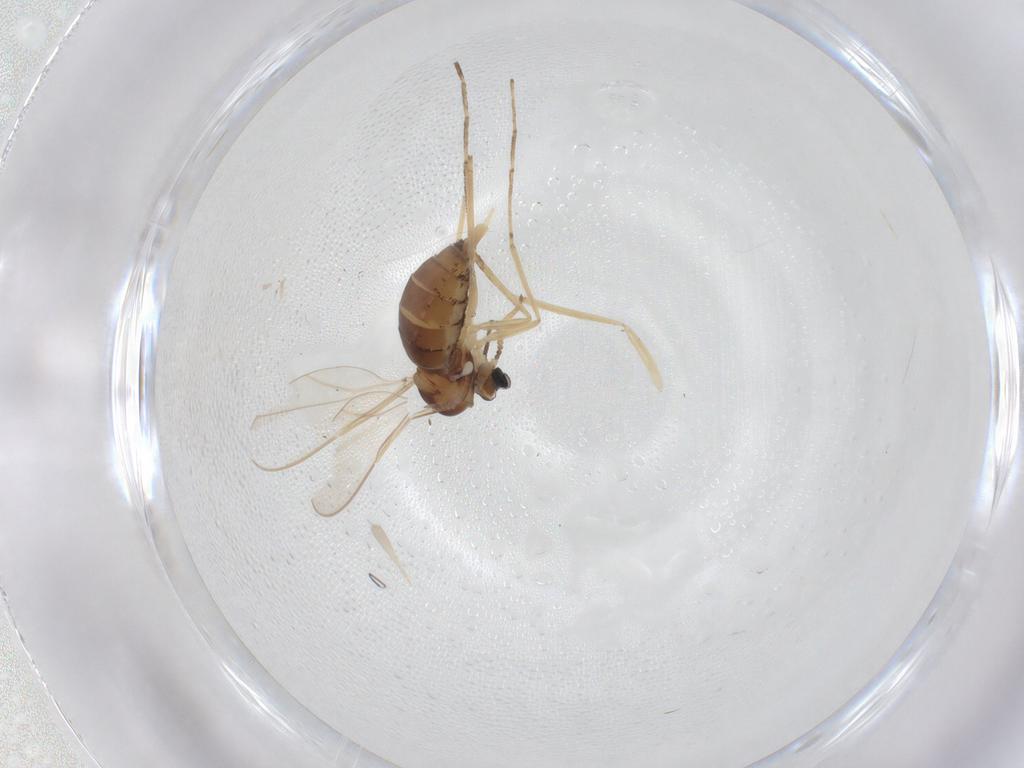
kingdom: Animalia
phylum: Arthropoda
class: Insecta
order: Diptera
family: Cecidomyiidae
